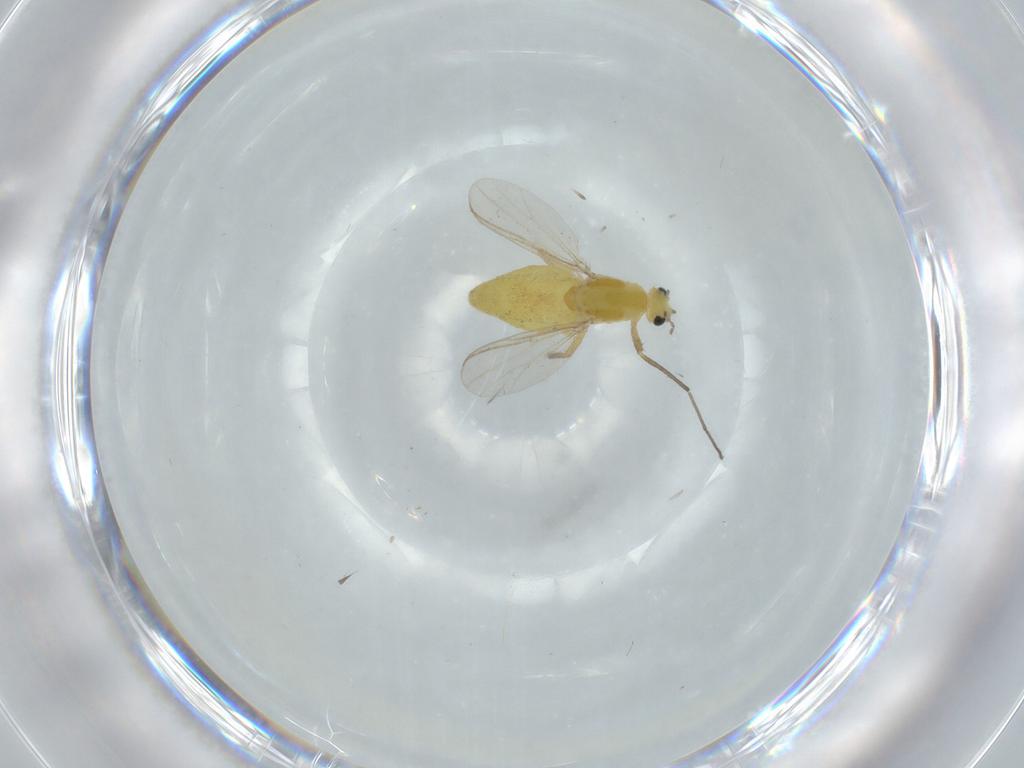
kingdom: Animalia
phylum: Arthropoda
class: Insecta
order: Diptera
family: Chironomidae
